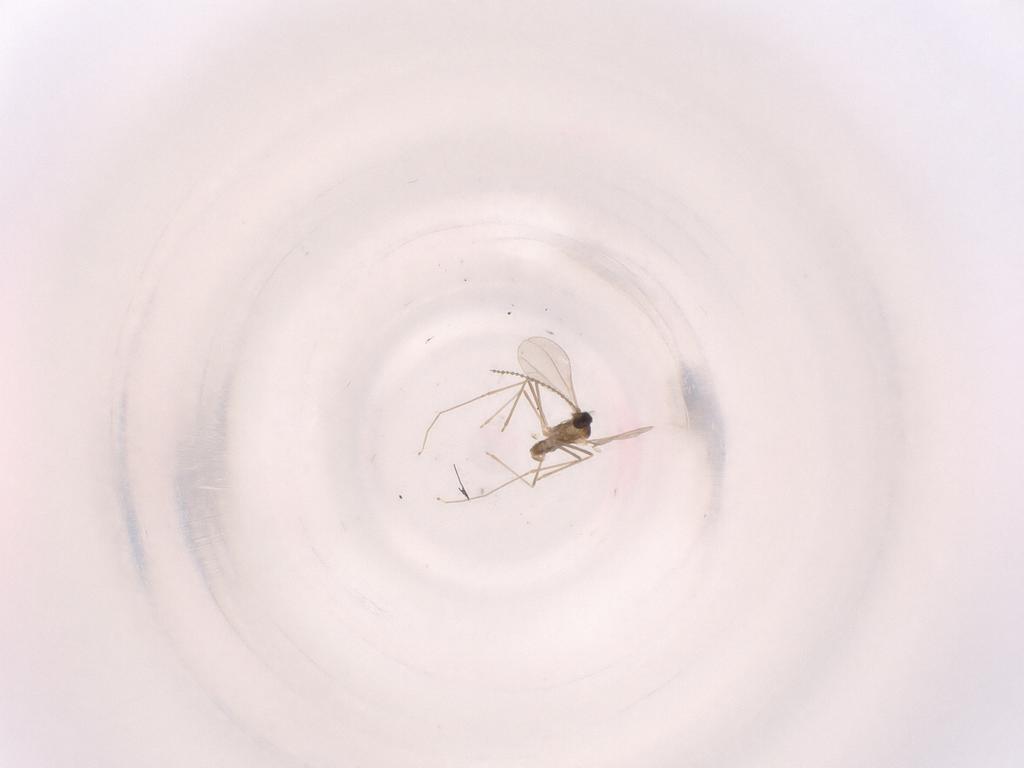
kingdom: Animalia
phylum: Arthropoda
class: Insecta
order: Diptera
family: Cecidomyiidae
